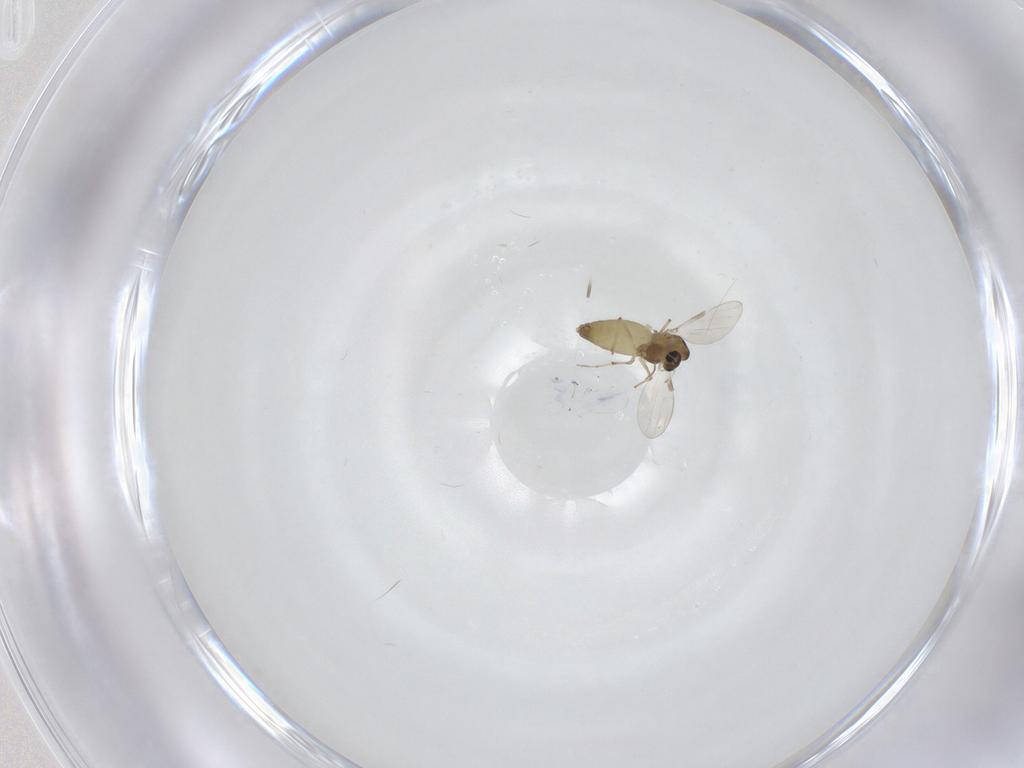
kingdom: Animalia
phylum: Arthropoda
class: Insecta
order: Diptera
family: Chironomidae
